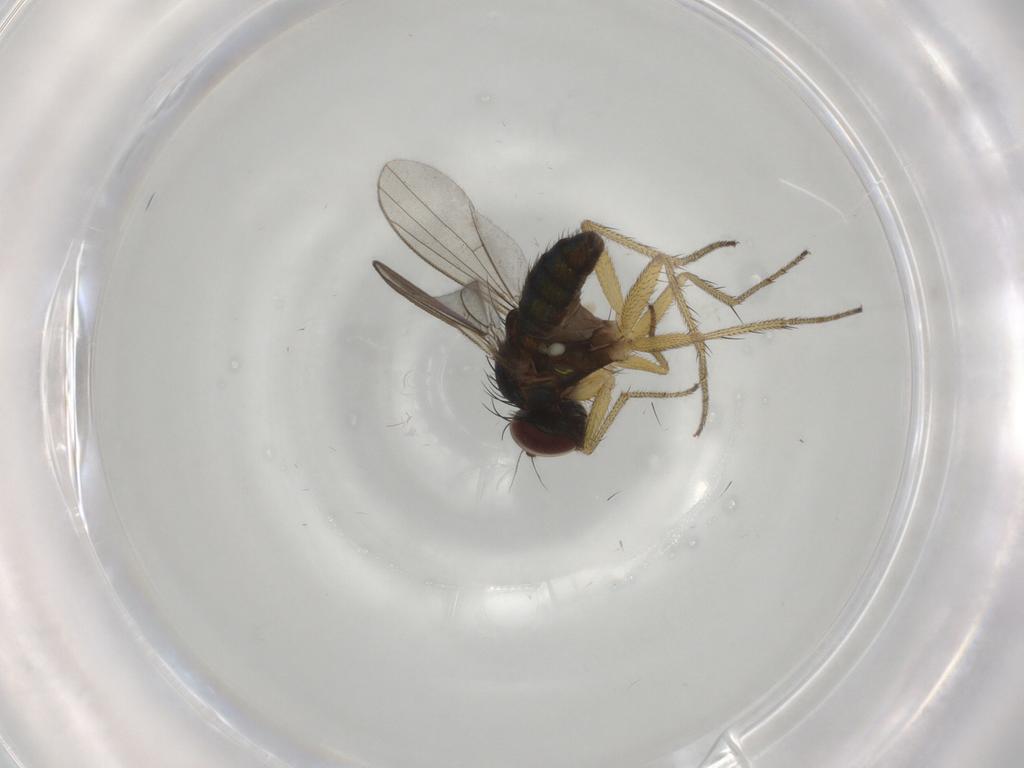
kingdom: Animalia
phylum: Arthropoda
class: Insecta
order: Diptera
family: Dolichopodidae
